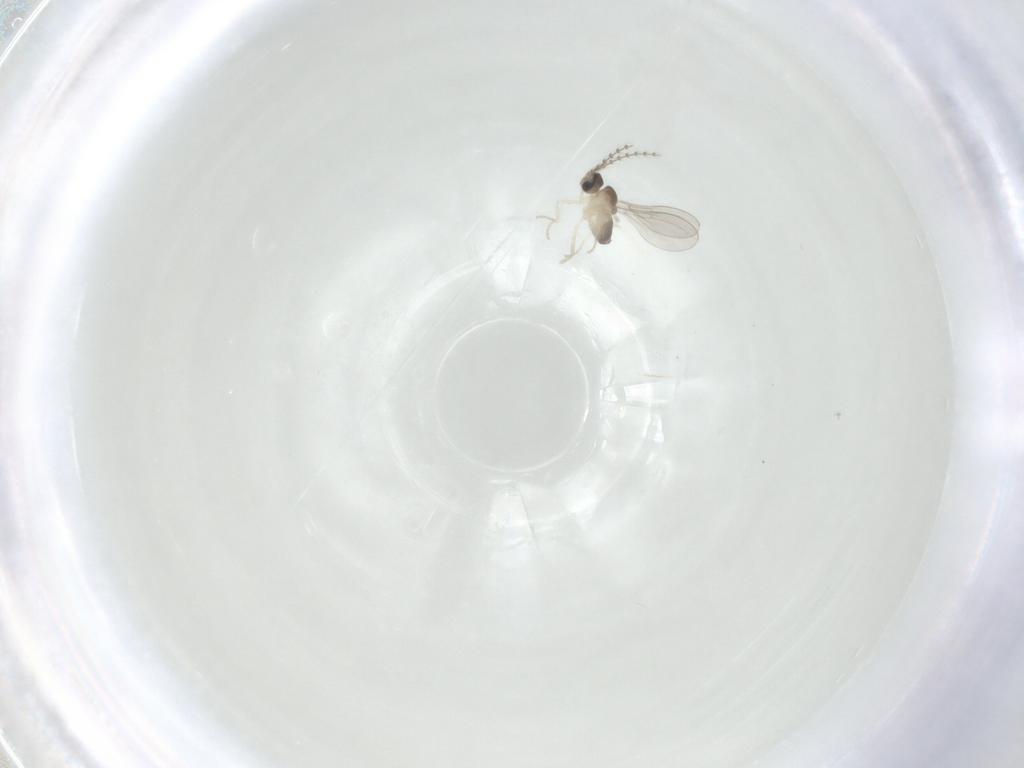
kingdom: Animalia
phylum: Arthropoda
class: Insecta
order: Diptera
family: Cecidomyiidae
